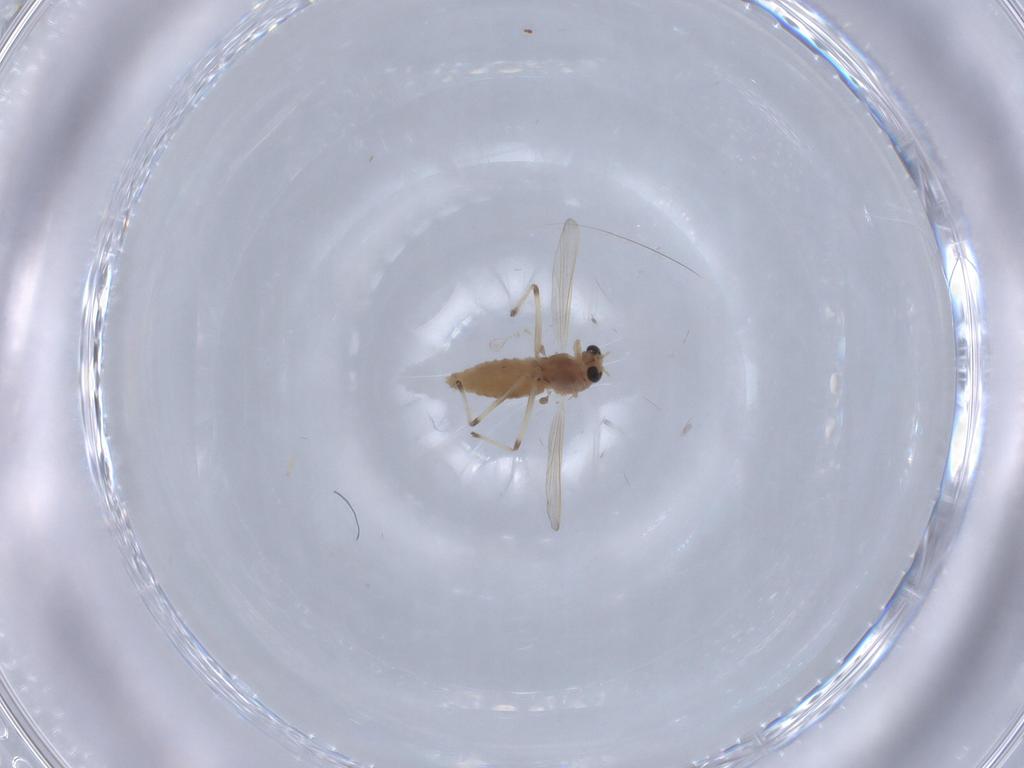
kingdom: Animalia
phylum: Arthropoda
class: Insecta
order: Diptera
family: Chironomidae
